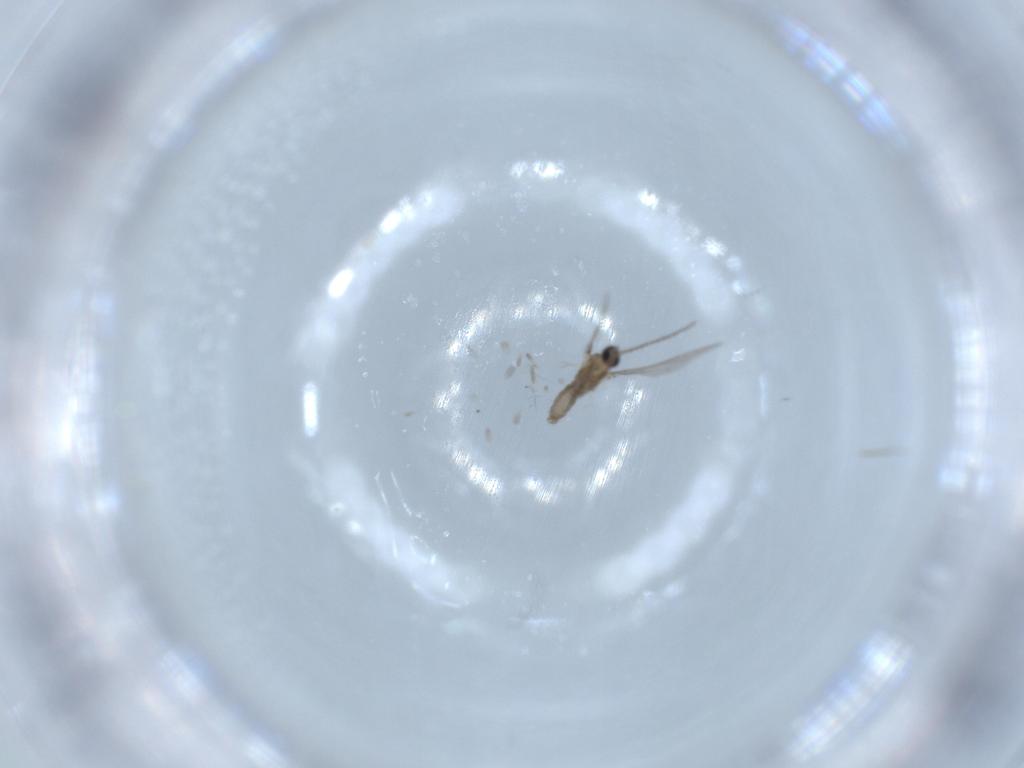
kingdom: Animalia
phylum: Arthropoda
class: Insecta
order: Diptera
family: Cecidomyiidae
